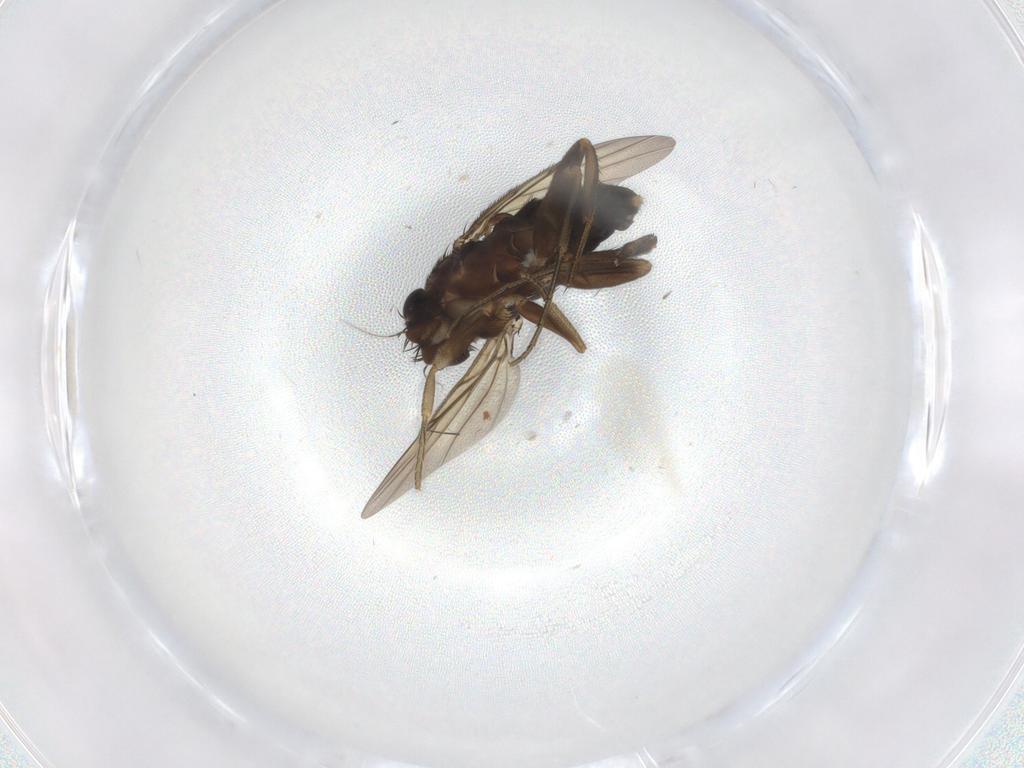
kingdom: Animalia
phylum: Arthropoda
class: Insecta
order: Diptera
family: Phoridae
